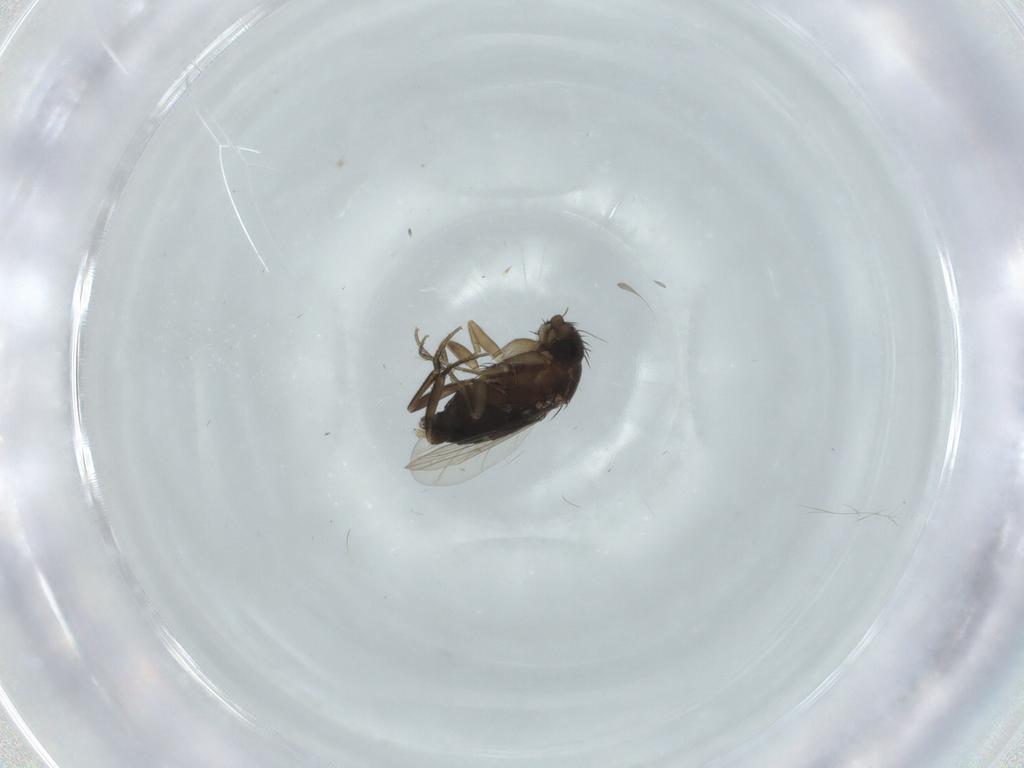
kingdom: Animalia
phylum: Arthropoda
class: Insecta
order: Diptera
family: Phoridae
